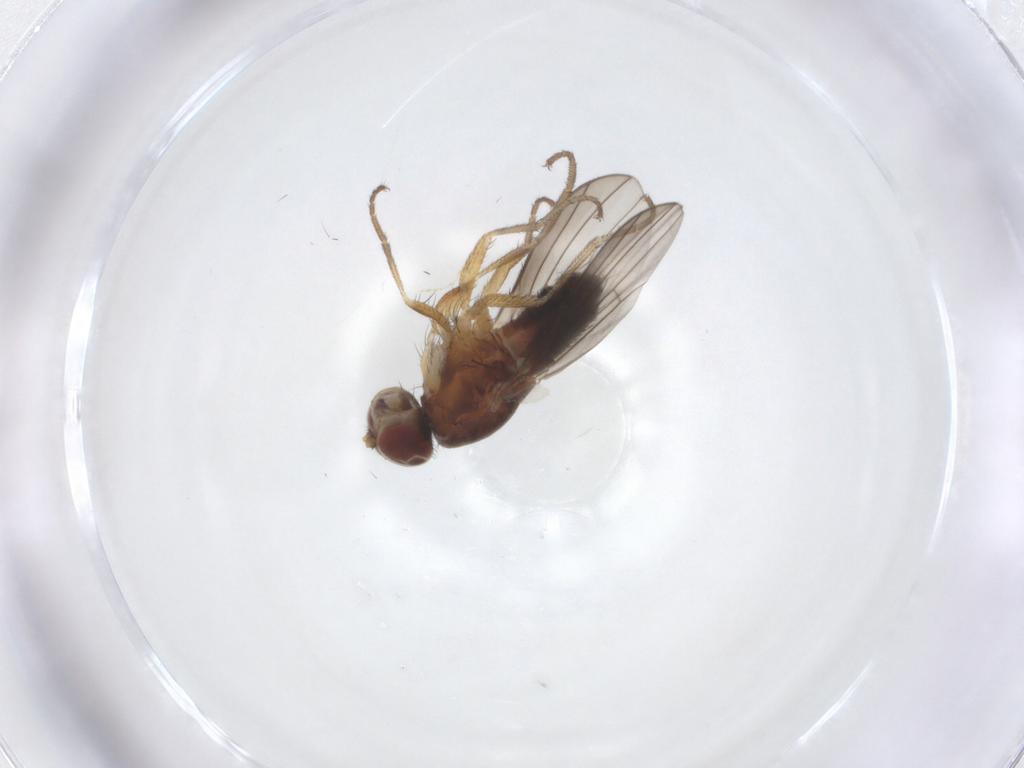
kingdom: Animalia
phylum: Arthropoda
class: Insecta
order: Diptera
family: Heleomyzidae
